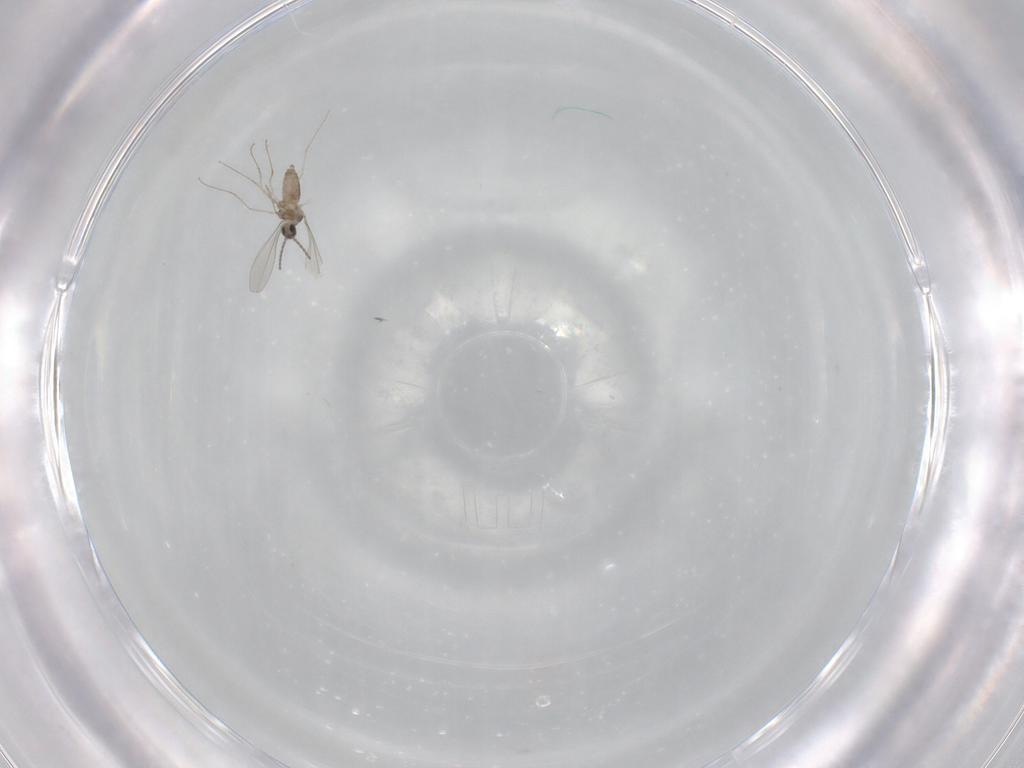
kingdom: Animalia
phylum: Arthropoda
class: Insecta
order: Diptera
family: Cecidomyiidae
